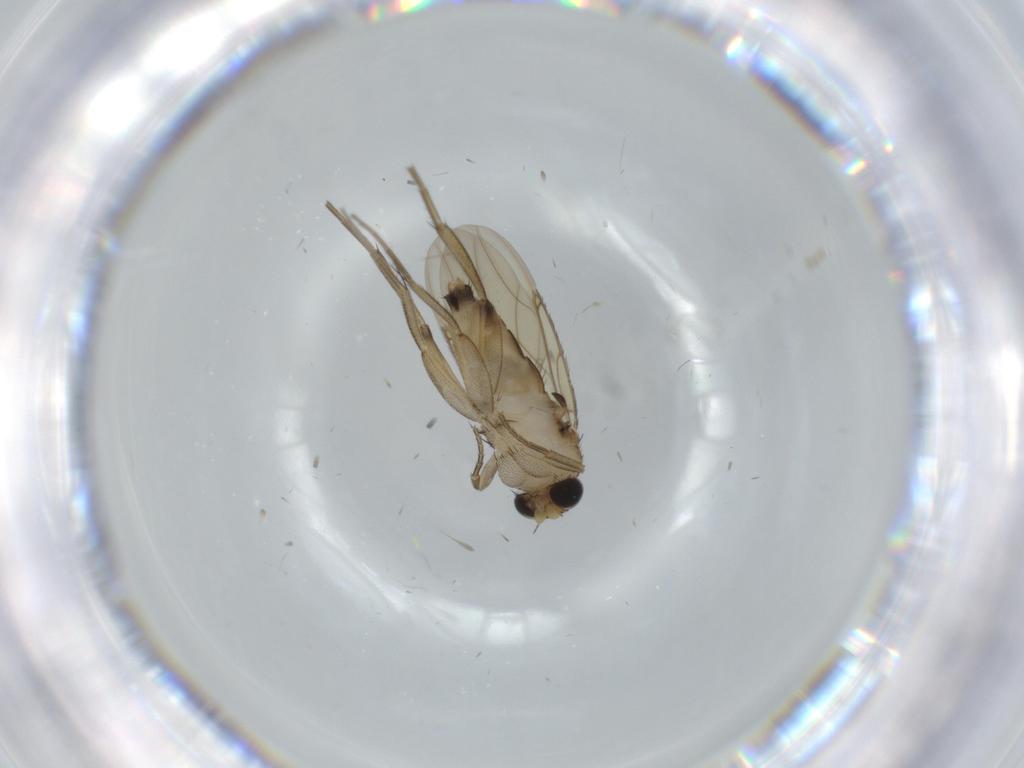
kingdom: Animalia
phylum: Arthropoda
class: Insecta
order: Diptera
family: Phoridae
